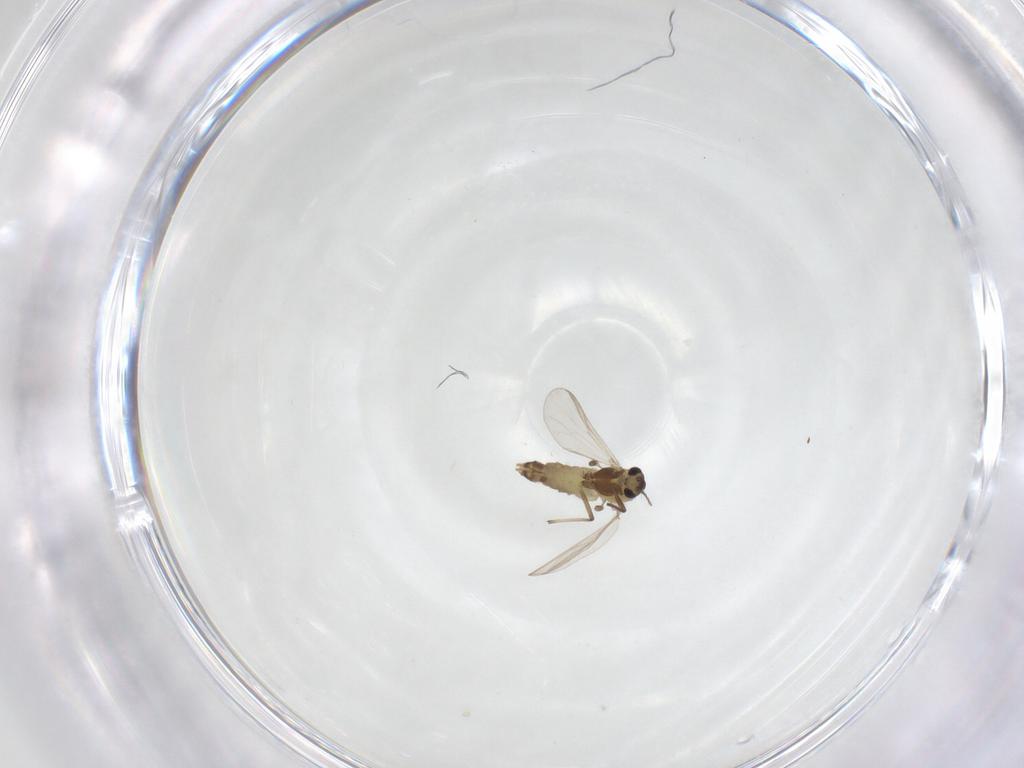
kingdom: Animalia
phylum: Arthropoda
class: Insecta
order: Diptera
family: Chironomidae
